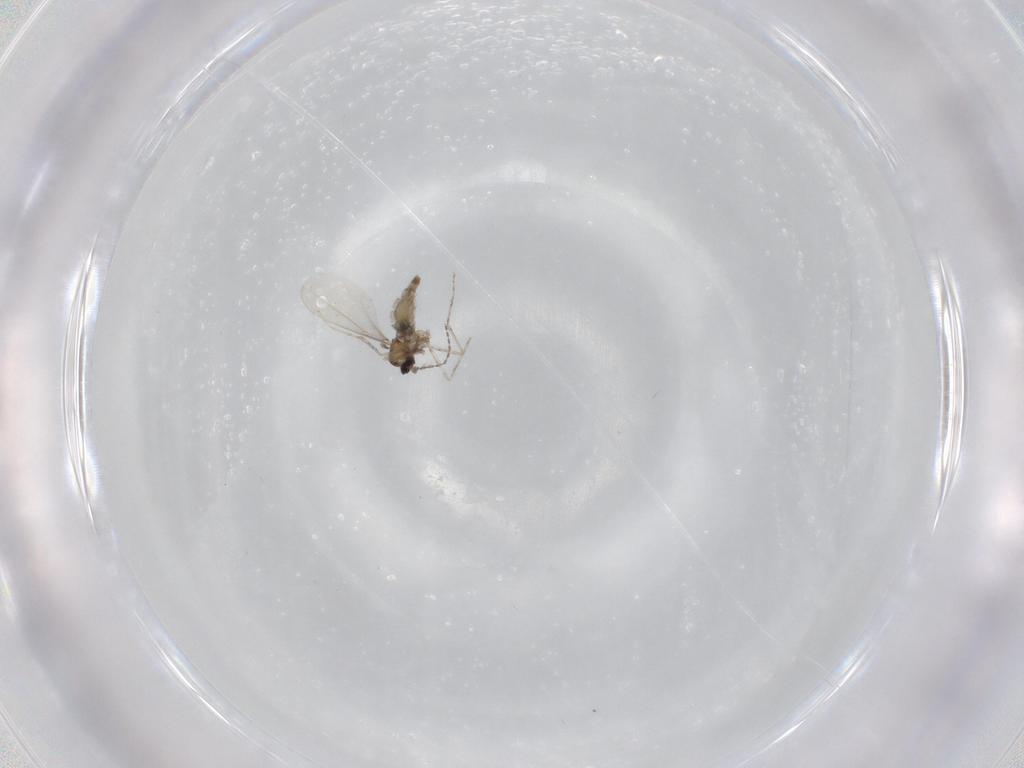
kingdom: Animalia
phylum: Arthropoda
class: Insecta
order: Diptera
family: Cecidomyiidae
